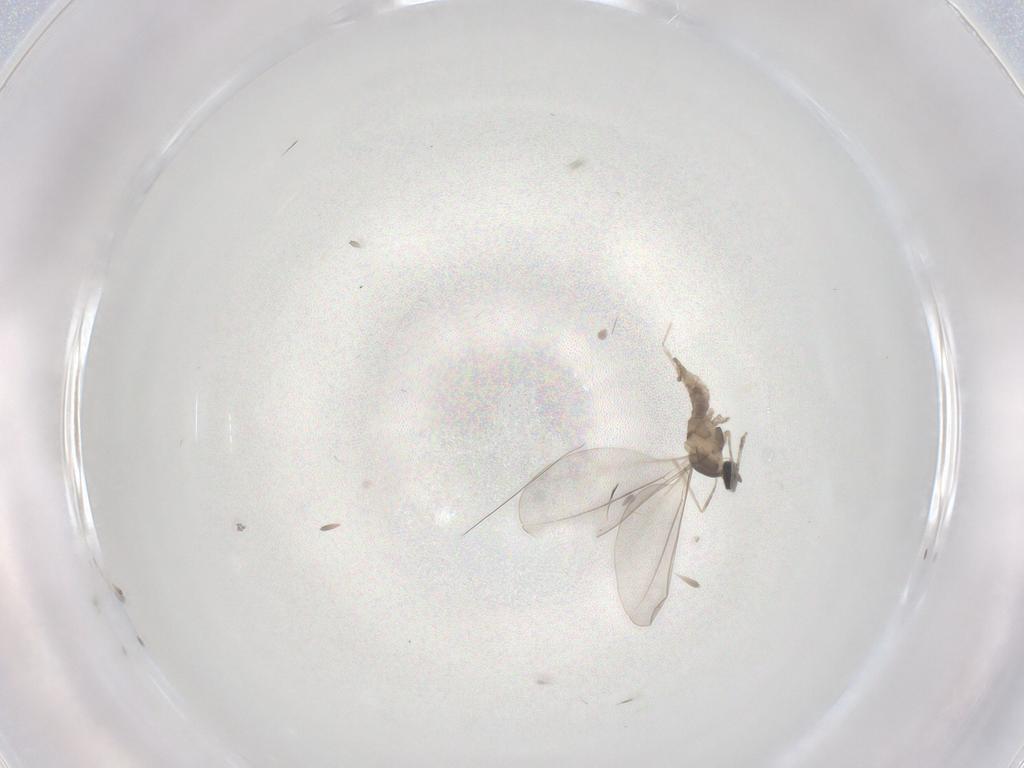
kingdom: Animalia
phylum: Arthropoda
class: Insecta
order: Diptera
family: Cecidomyiidae
